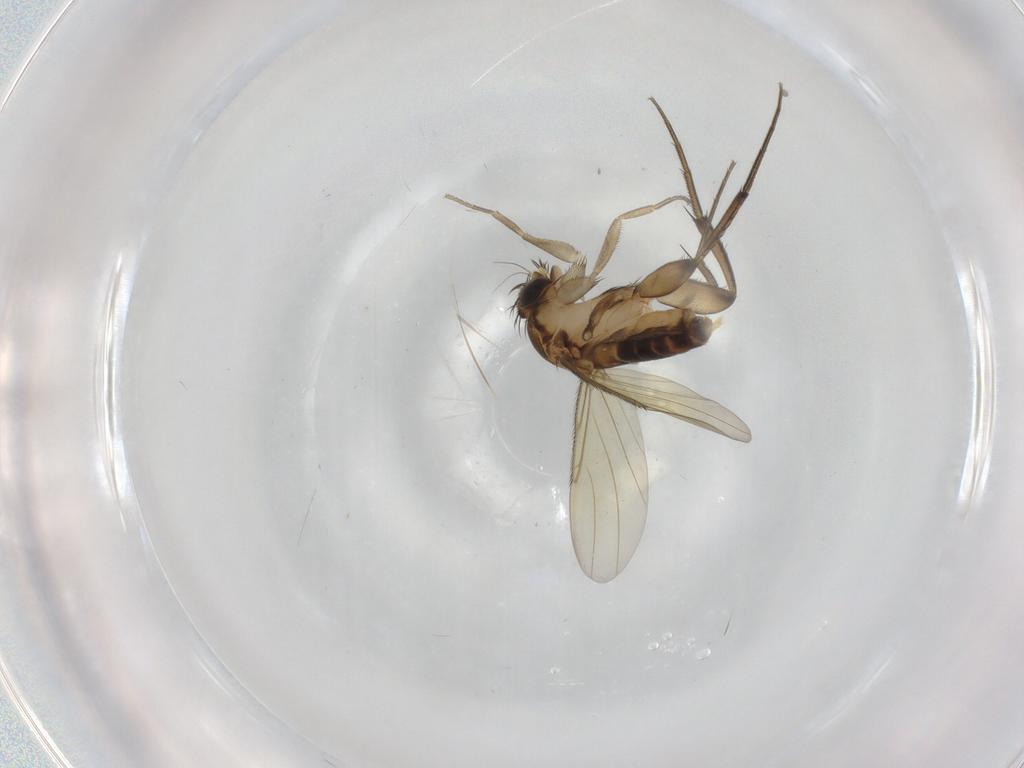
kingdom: Animalia
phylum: Arthropoda
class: Insecta
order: Diptera
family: Phoridae
